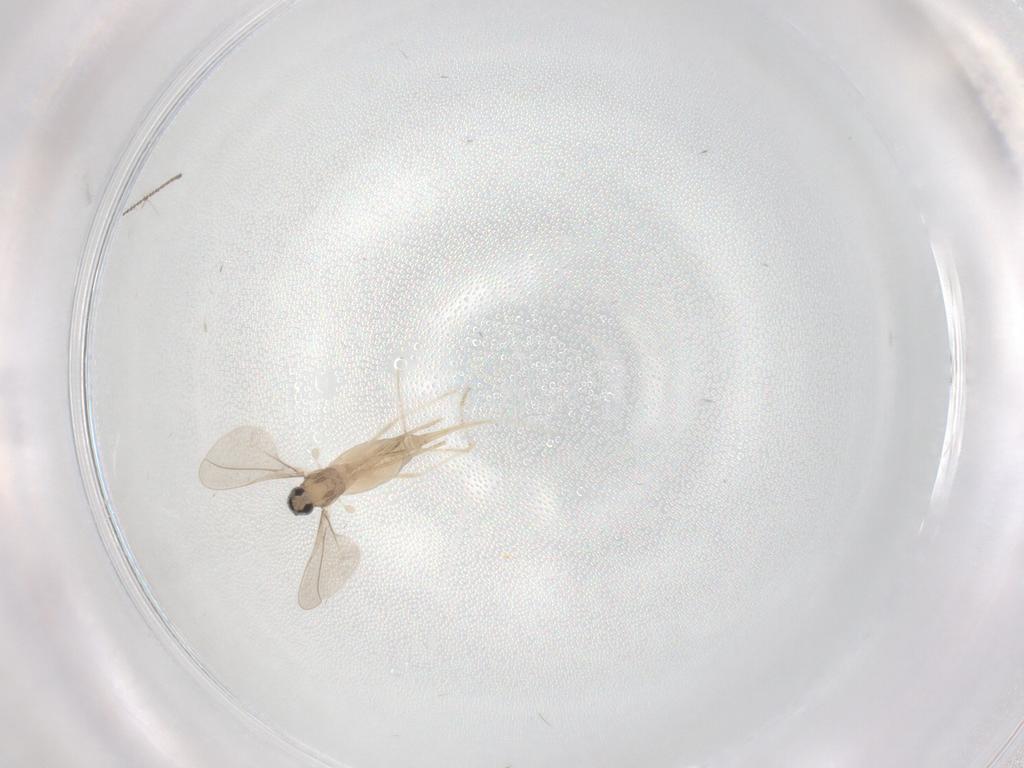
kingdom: Animalia
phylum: Arthropoda
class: Insecta
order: Diptera
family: Cecidomyiidae
